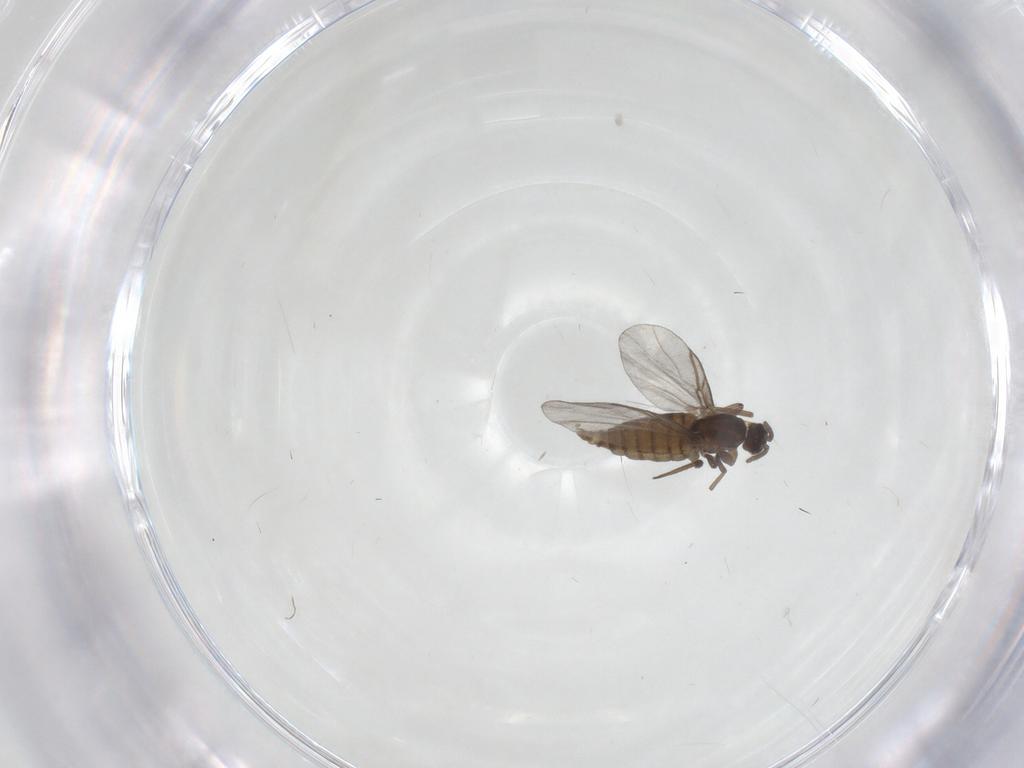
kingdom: Animalia
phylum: Arthropoda
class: Insecta
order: Diptera
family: Cecidomyiidae
